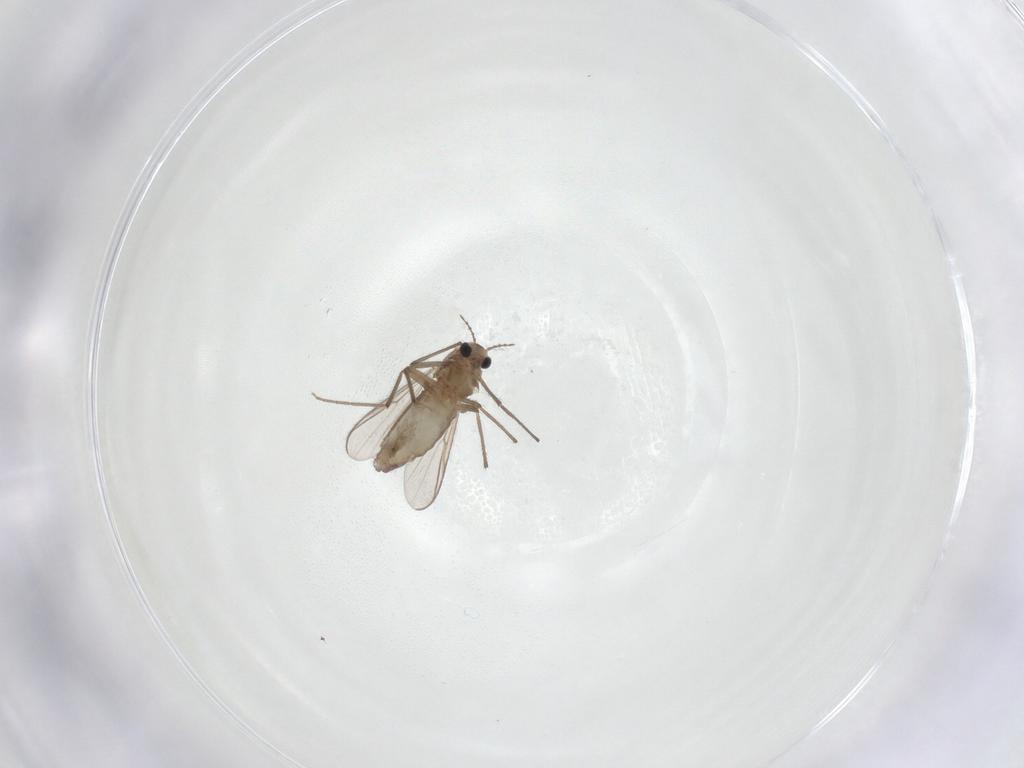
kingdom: Animalia
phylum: Arthropoda
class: Insecta
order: Diptera
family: Chironomidae
